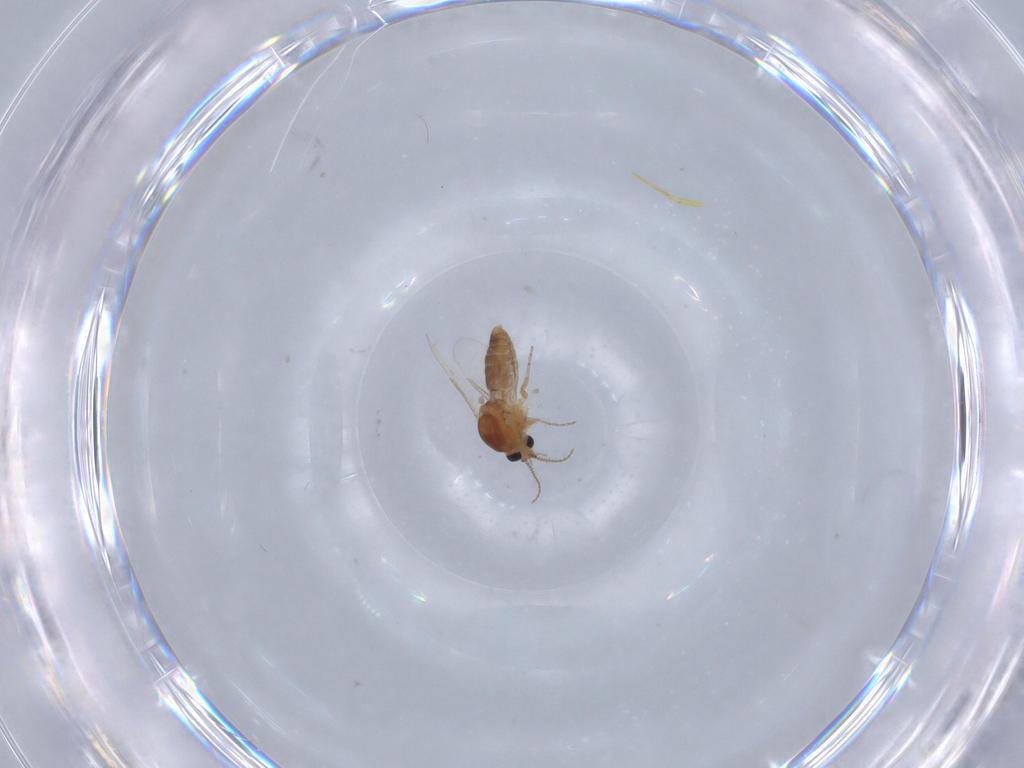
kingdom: Animalia
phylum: Arthropoda
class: Insecta
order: Diptera
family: Ceratopogonidae
